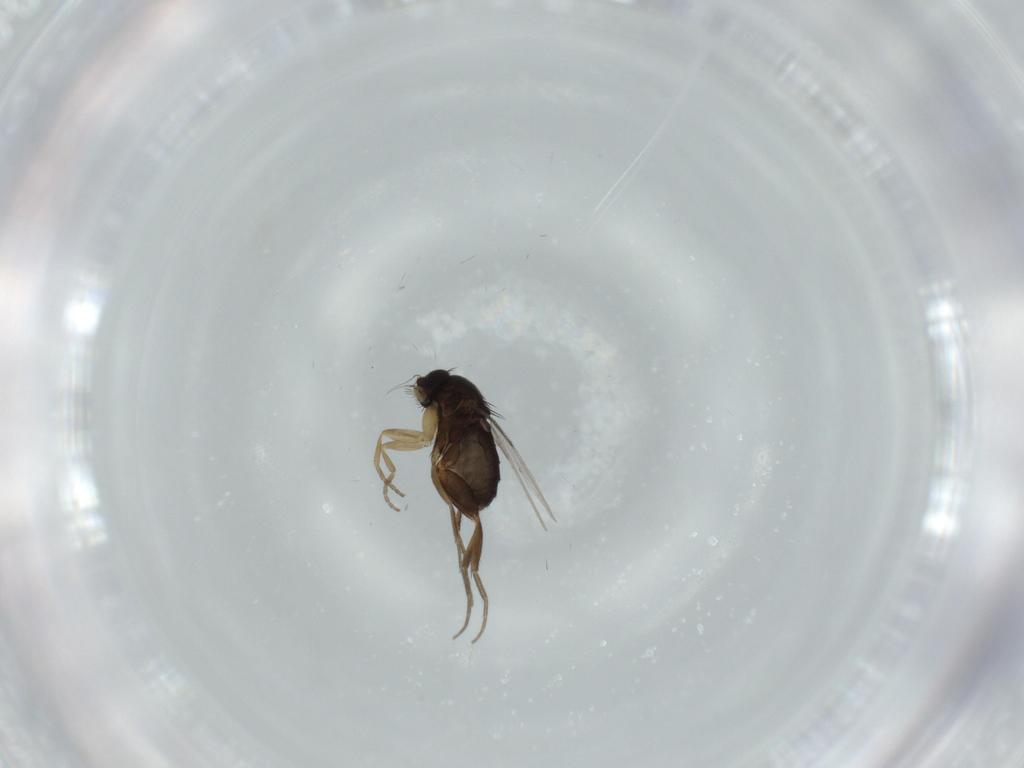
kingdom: Animalia
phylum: Arthropoda
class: Insecta
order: Diptera
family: Phoridae
